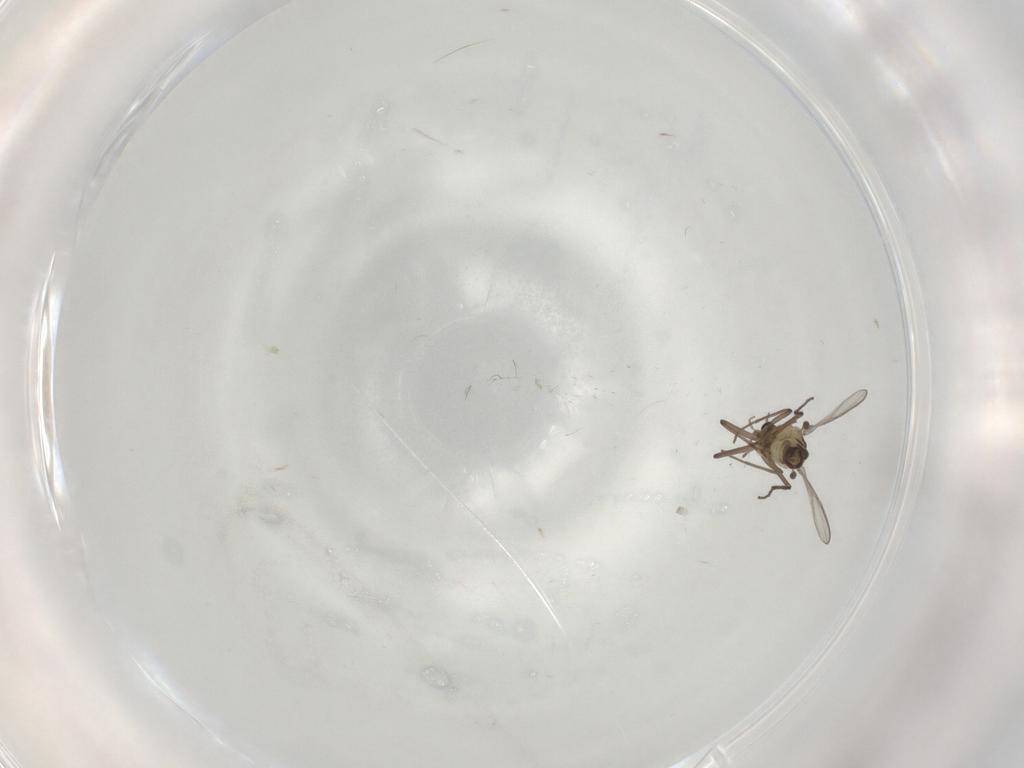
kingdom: Animalia
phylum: Arthropoda
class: Insecta
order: Diptera
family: Chironomidae
